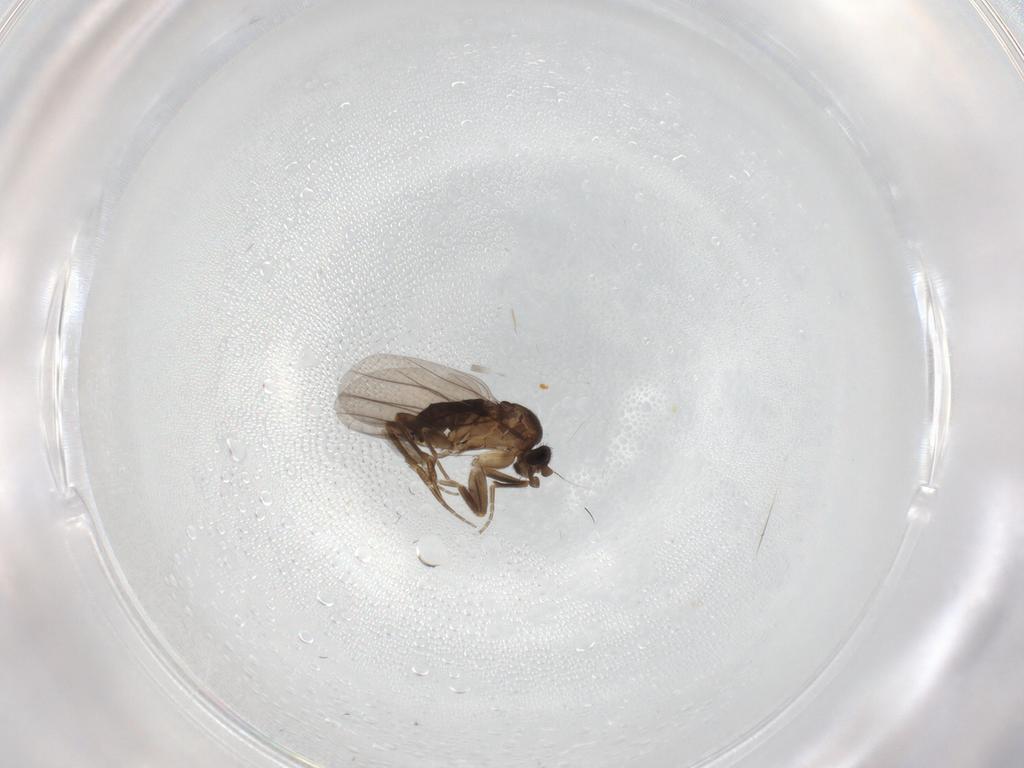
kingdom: Animalia
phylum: Arthropoda
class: Insecta
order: Diptera
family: Ceratopogonidae
